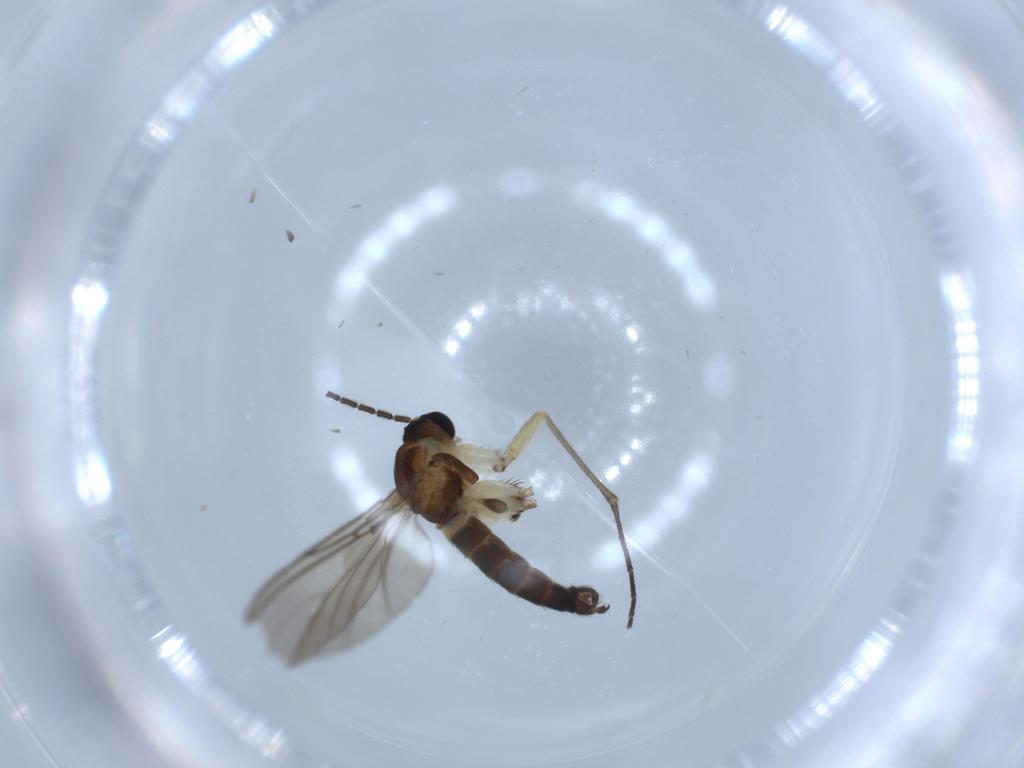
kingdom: Animalia
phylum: Arthropoda
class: Insecta
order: Diptera
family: Sciaridae
